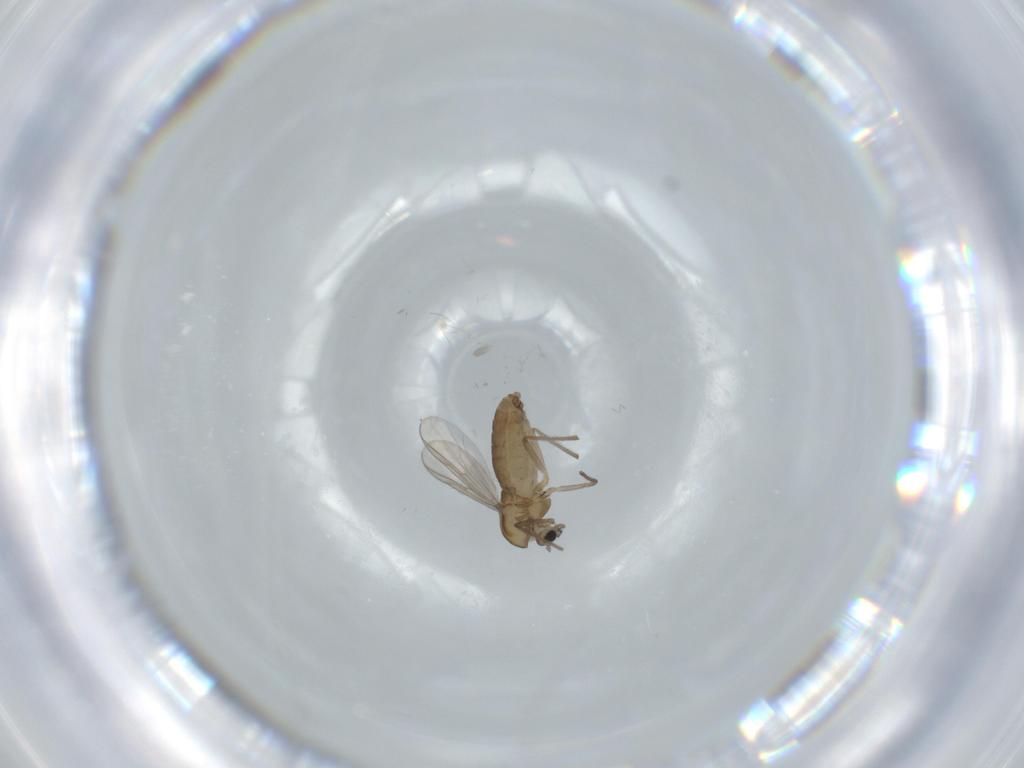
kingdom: Animalia
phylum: Arthropoda
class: Insecta
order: Diptera
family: Chironomidae
